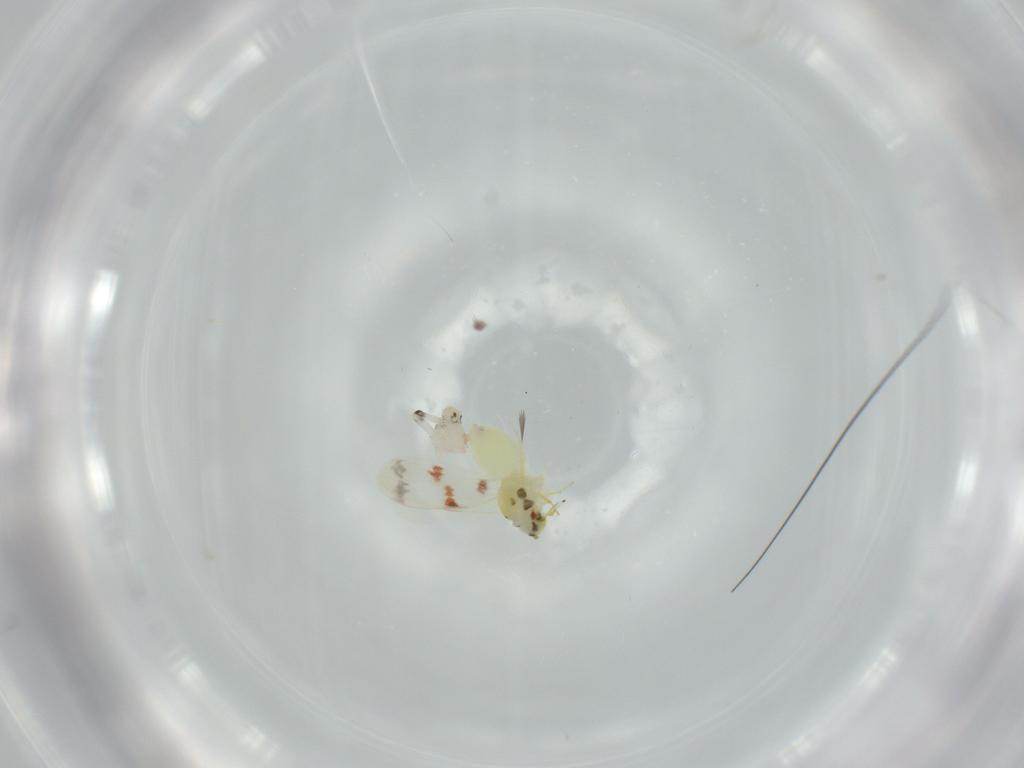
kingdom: Animalia
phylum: Arthropoda
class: Insecta
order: Hemiptera
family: Aleyrodidae
